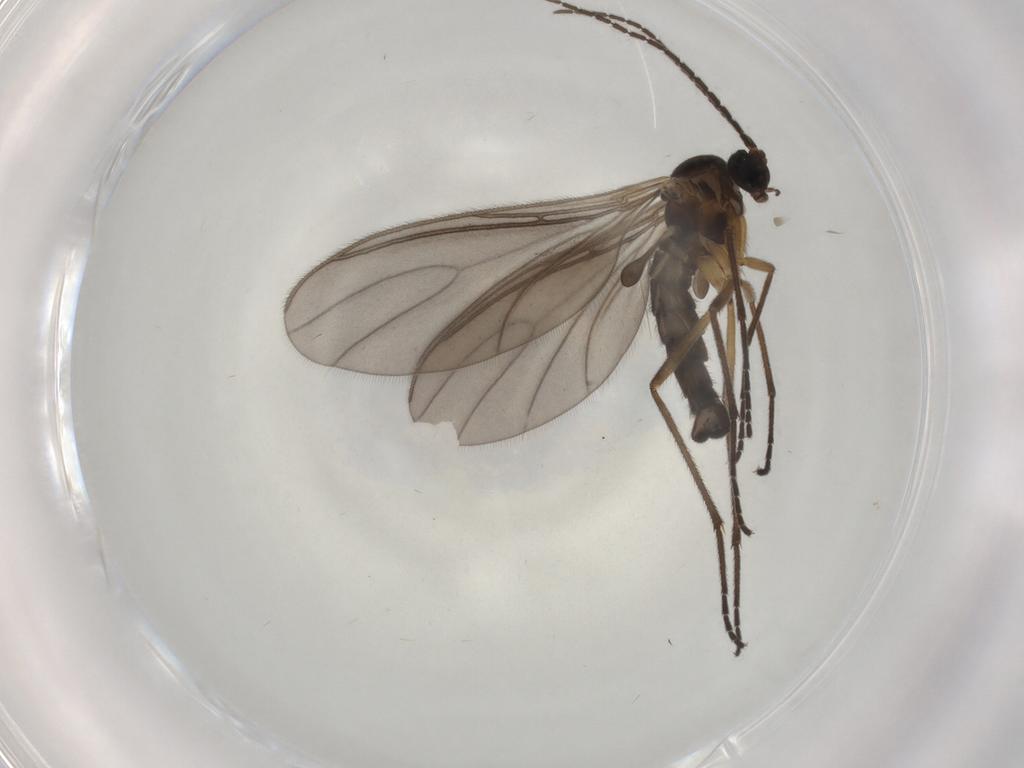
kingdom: Animalia
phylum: Arthropoda
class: Insecta
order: Diptera
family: Sciaridae
